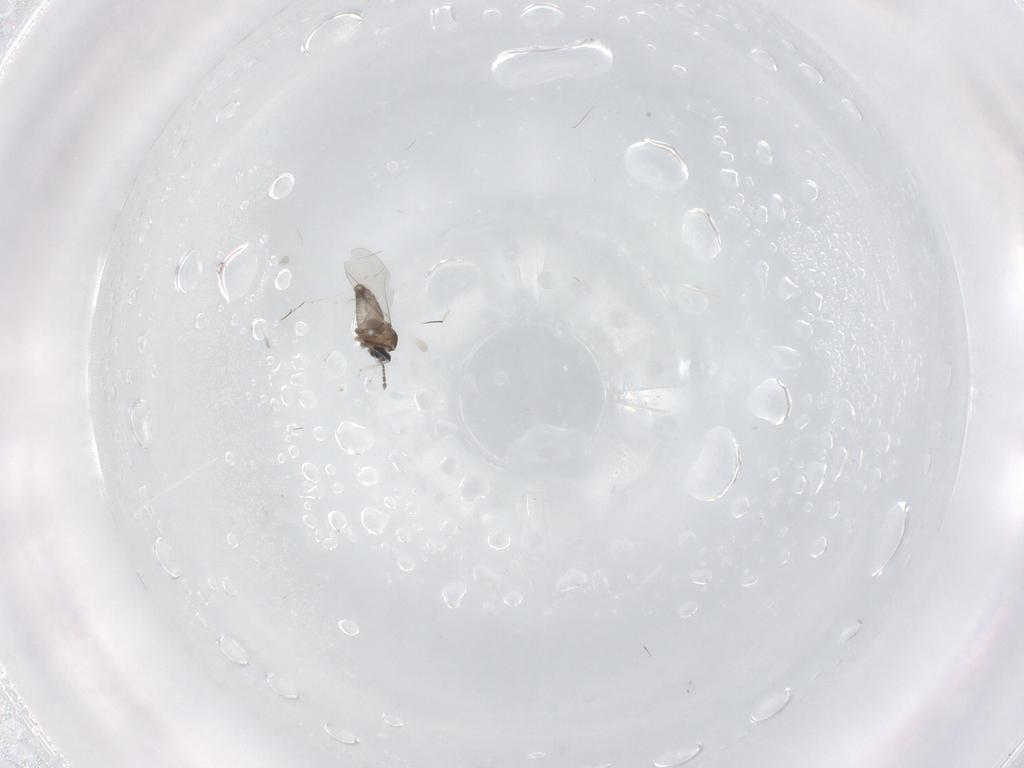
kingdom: Animalia
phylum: Arthropoda
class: Insecta
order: Diptera
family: Cecidomyiidae
